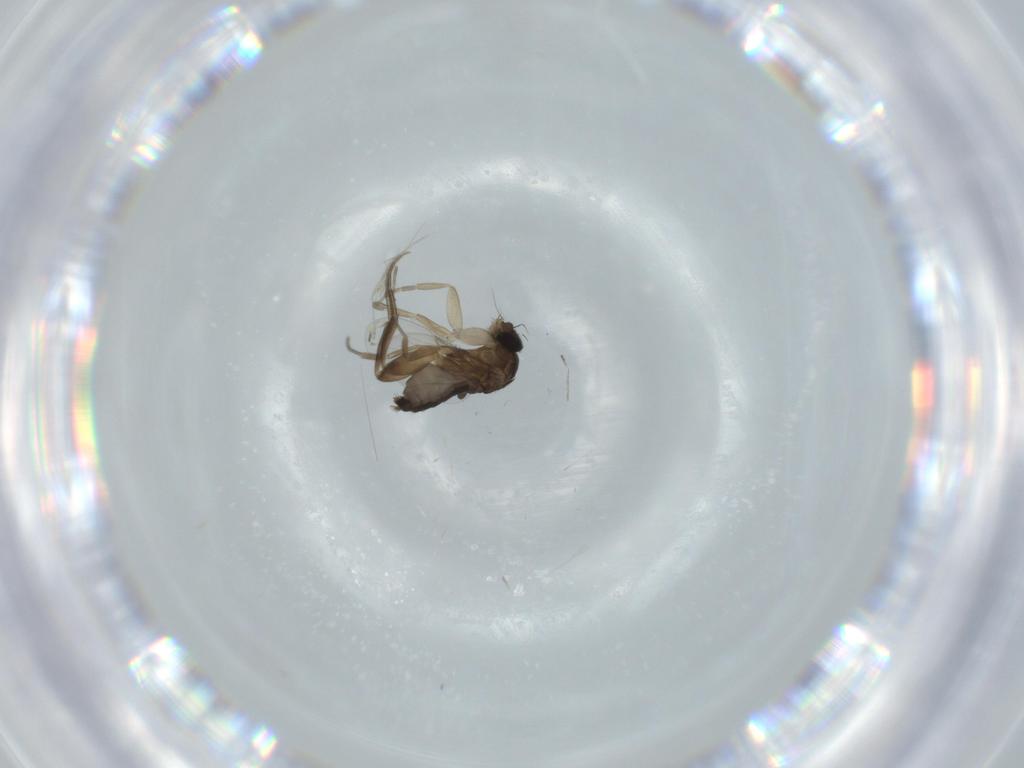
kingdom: Animalia
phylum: Arthropoda
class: Insecta
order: Diptera
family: Phoridae
